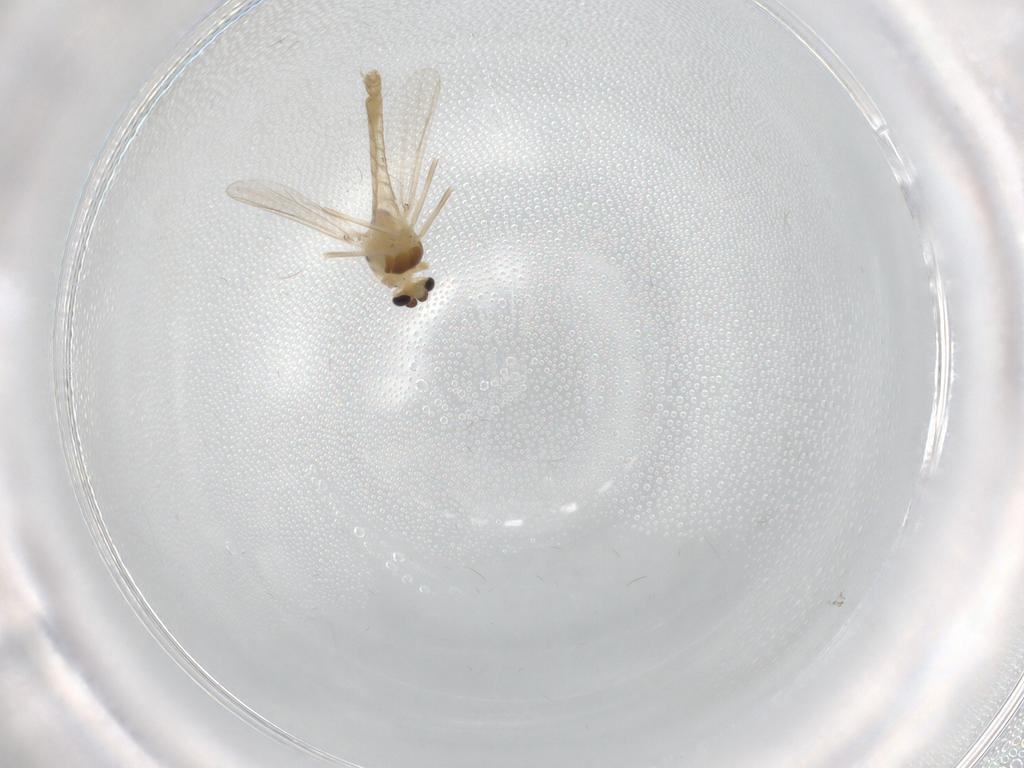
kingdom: Animalia
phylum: Arthropoda
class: Insecta
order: Diptera
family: Chironomidae
